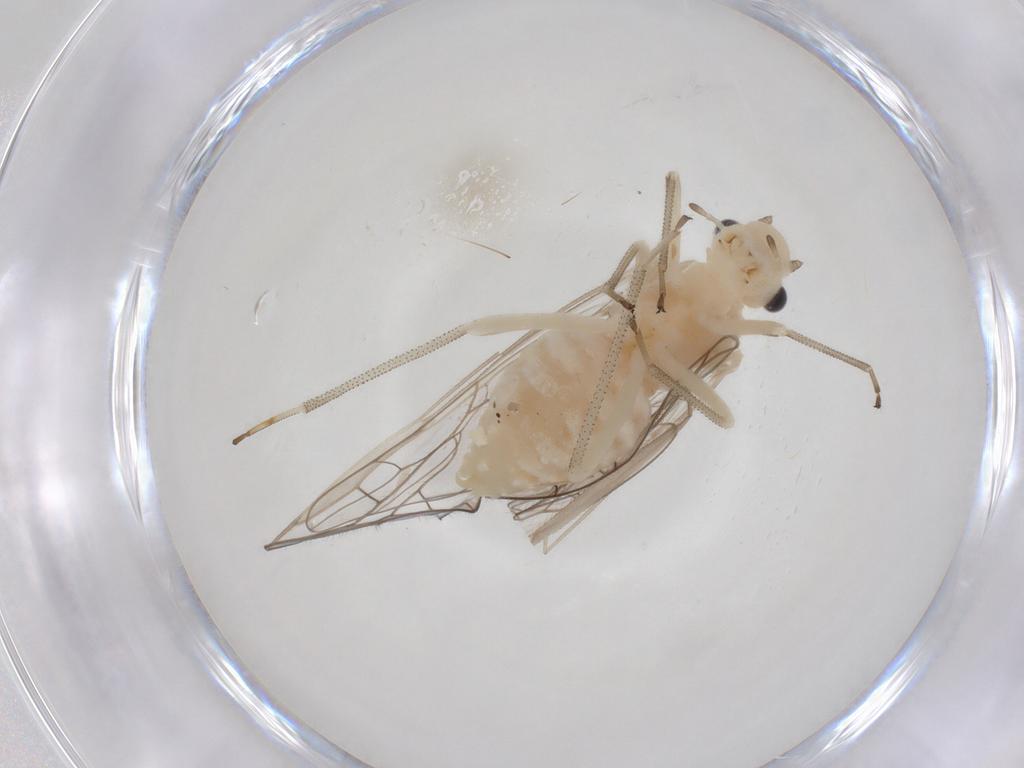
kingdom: Animalia
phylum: Arthropoda
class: Insecta
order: Psocodea
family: Stenopsocidae
